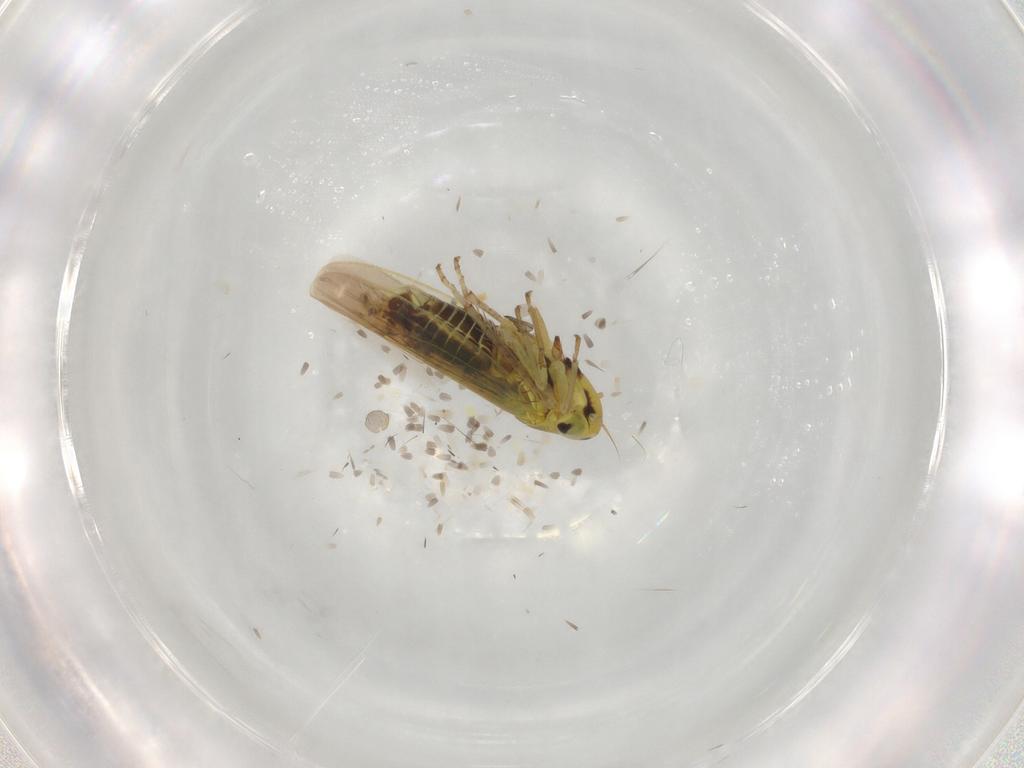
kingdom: Animalia
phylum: Arthropoda
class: Insecta
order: Hemiptera
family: Cicadellidae
